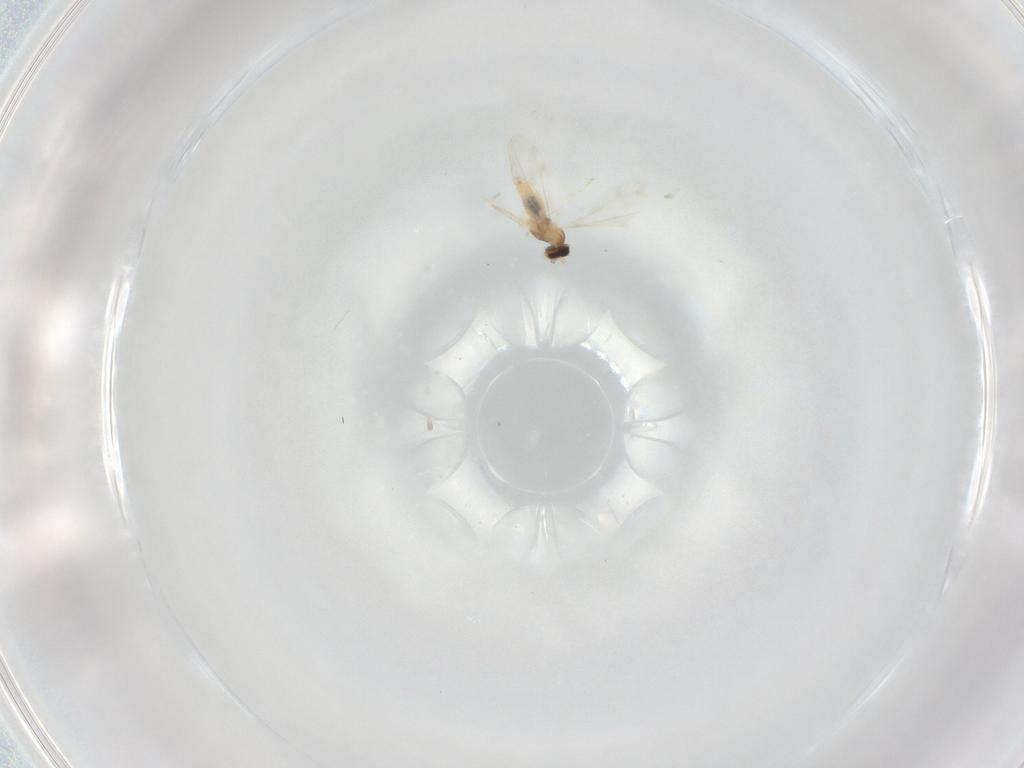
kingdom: Animalia
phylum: Arthropoda
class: Insecta
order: Diptera
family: Cecidomyiidae
